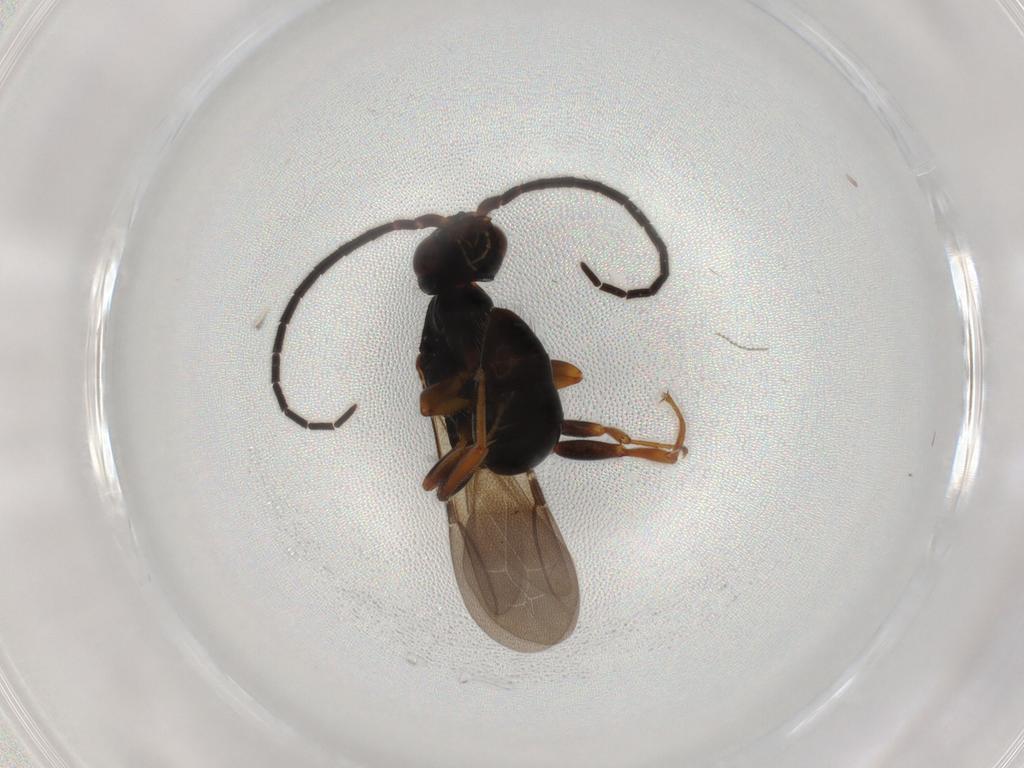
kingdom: Animalia
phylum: Arthropoda
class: Insecta
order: Hymenoptera
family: Bethylidae
